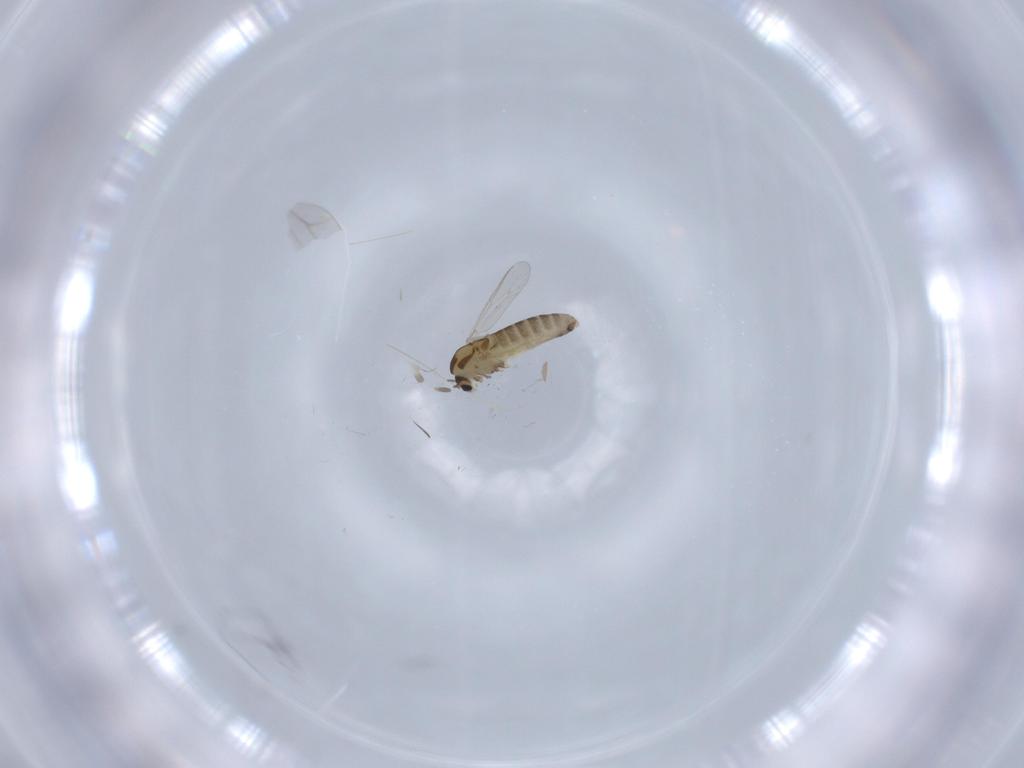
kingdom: Animalia
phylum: Arthropoda
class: Insecta
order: Diptera
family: Chironomidae
